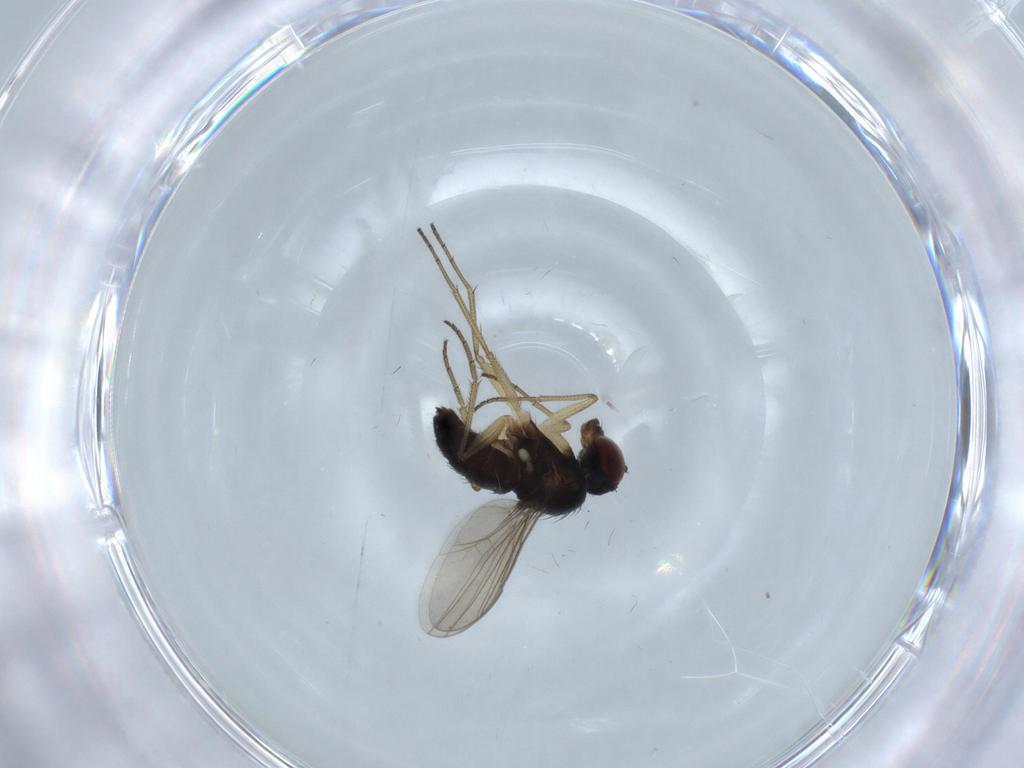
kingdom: Animalia
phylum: Arthropoda
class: Insecta
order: Diptera
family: Dolichopodidae
